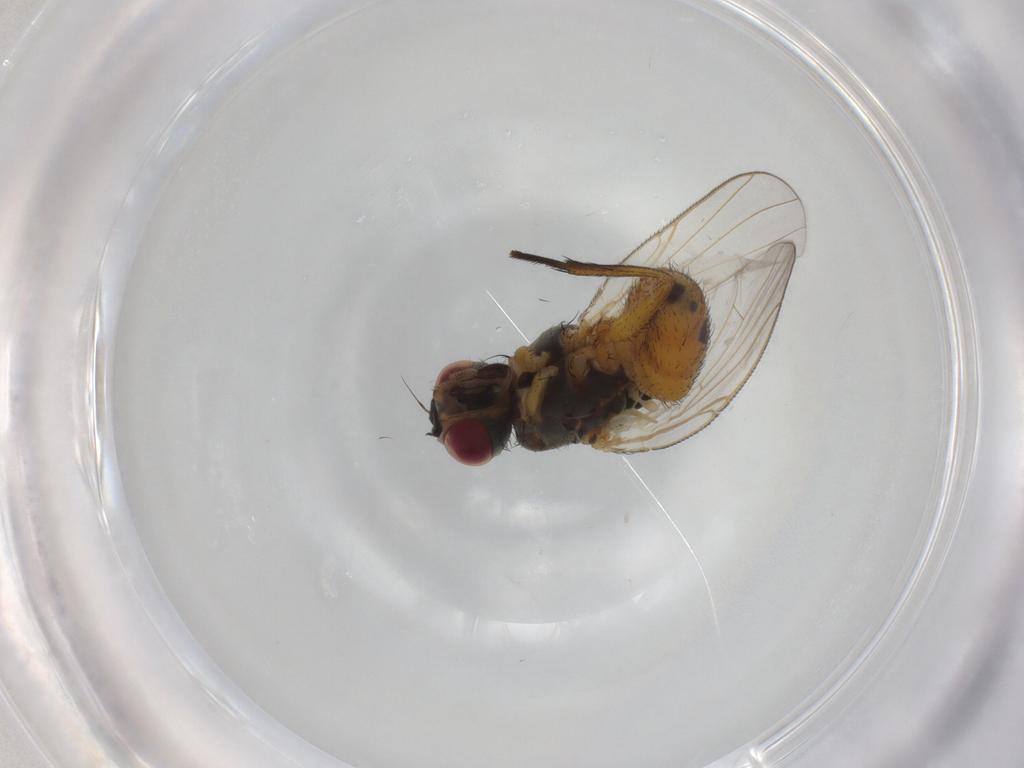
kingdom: Animalia
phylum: Arthropoda
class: Insecta
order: Diptera
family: Muscidae
